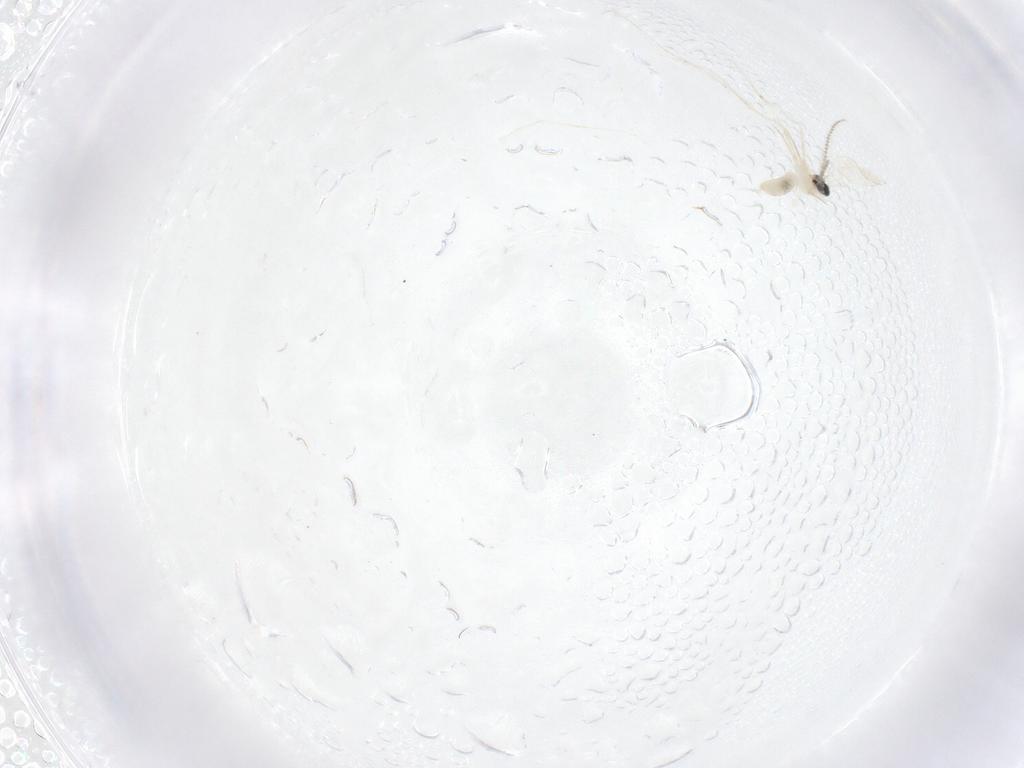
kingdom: Animalia
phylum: Arthropoda
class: Insecta
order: Diptera
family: Ceratopogonidae
